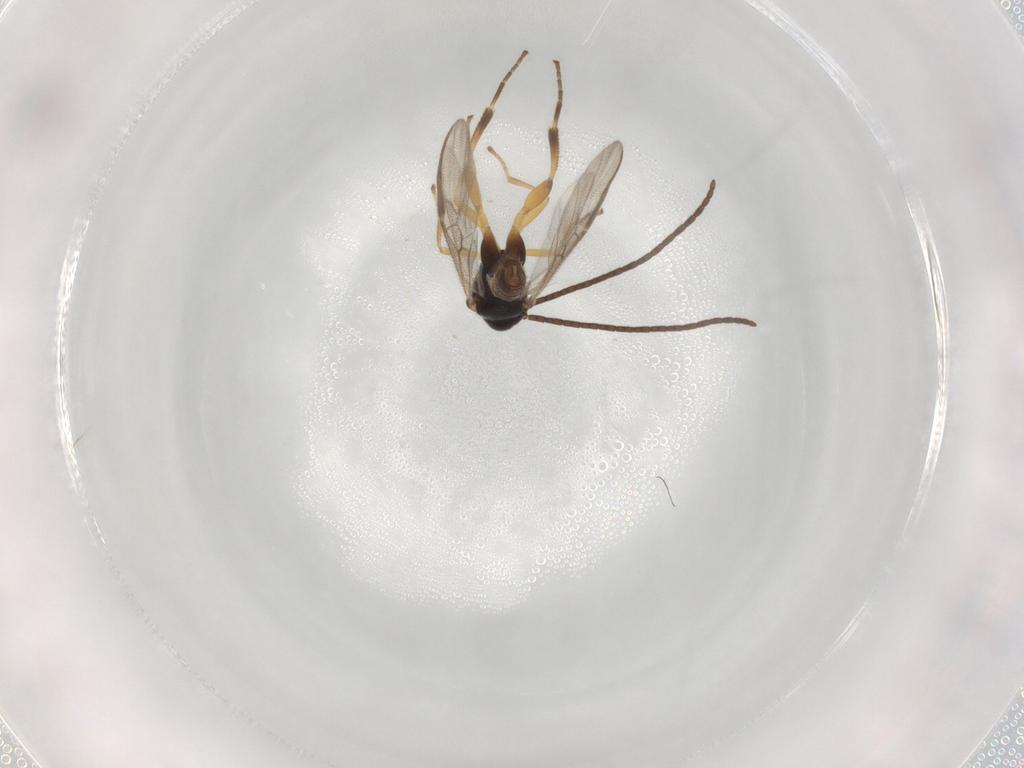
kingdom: Animalia
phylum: Arthropoda
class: Insecta
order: Hymenoptera
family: Braconidae
